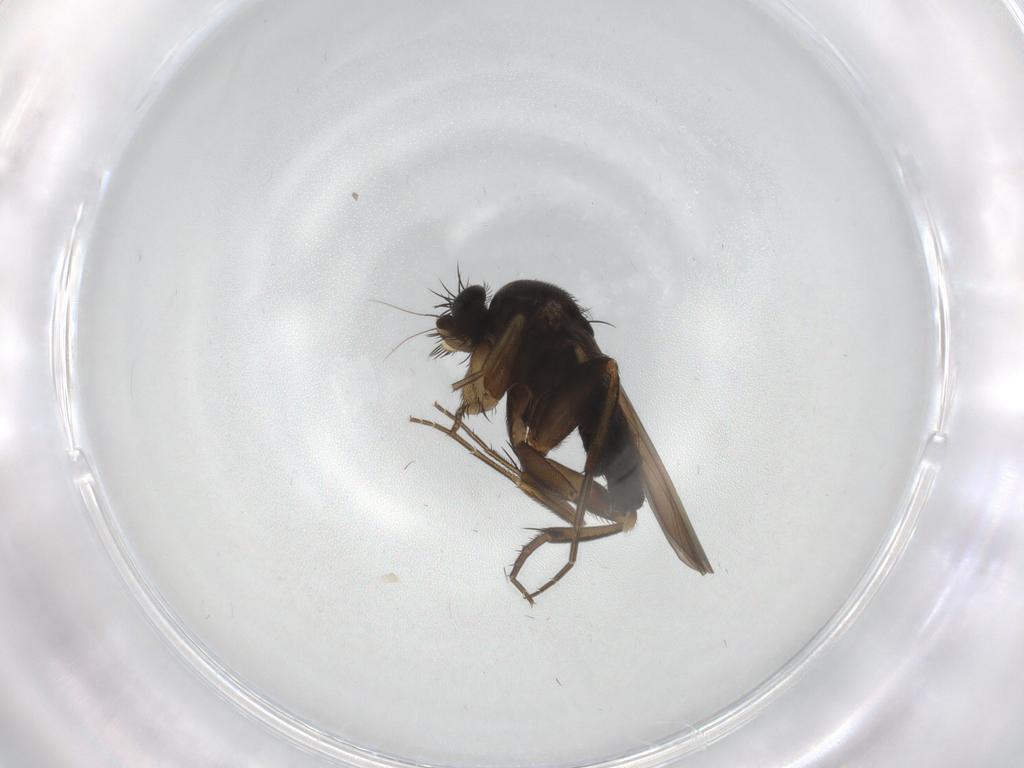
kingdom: Animalia
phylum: Arthropoda
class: Insecta
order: Diptera
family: Phoridae
